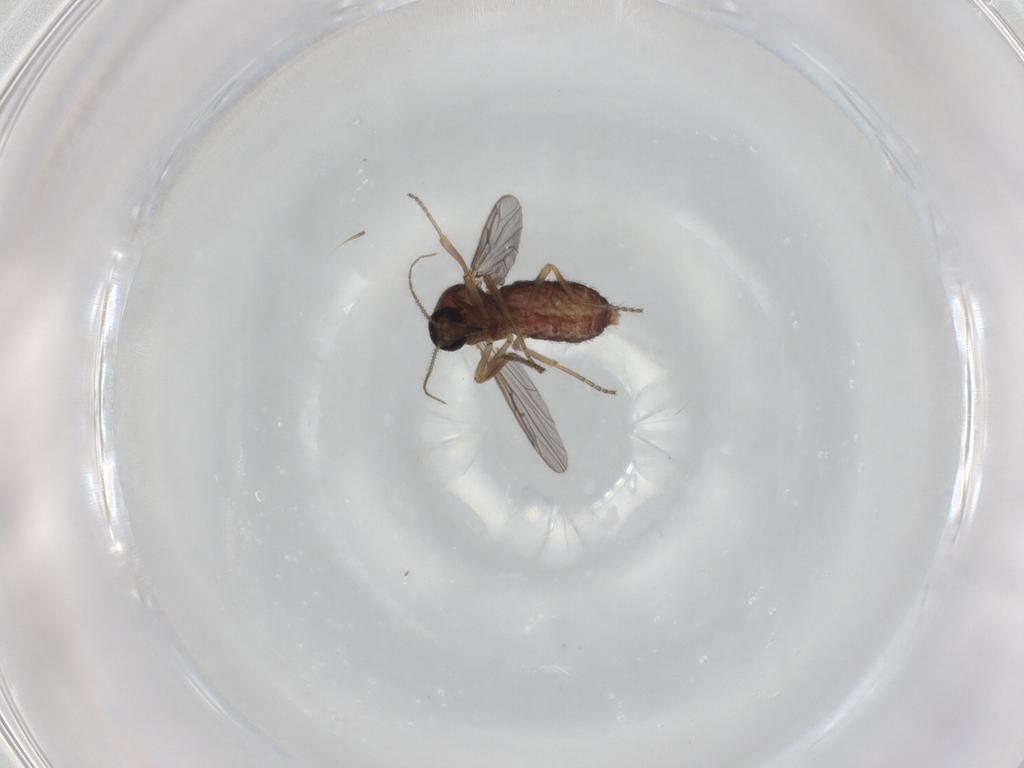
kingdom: Animalia
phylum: Arthropoda
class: Insecta
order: Diptera
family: Ceratopogonidae
